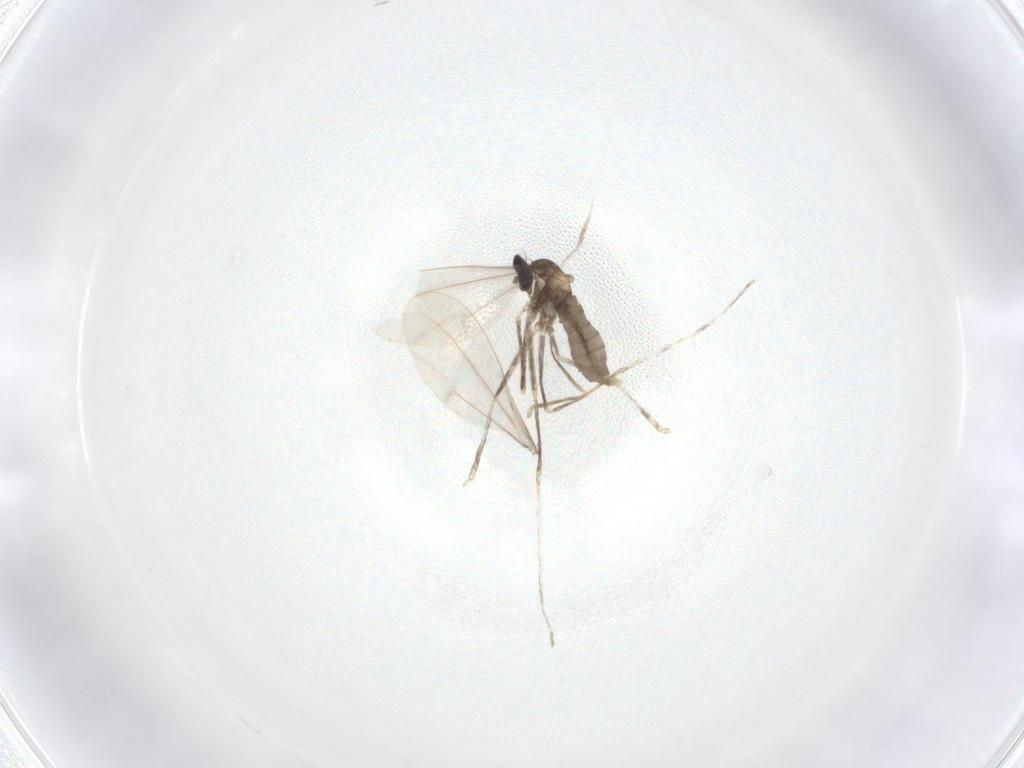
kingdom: Animalia
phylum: Arthropoda
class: Insecta
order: Diptera
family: Cecidomyiidae
